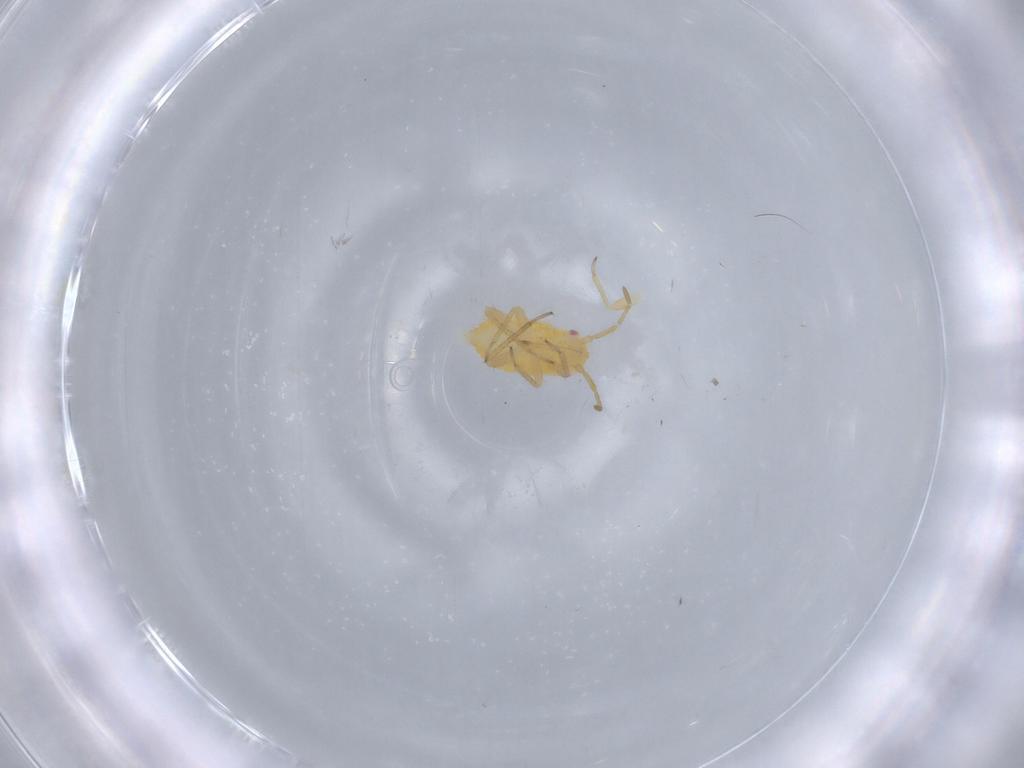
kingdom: Animalia
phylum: Arthropoda
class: Insecta
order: Hemiptera
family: Miridae
